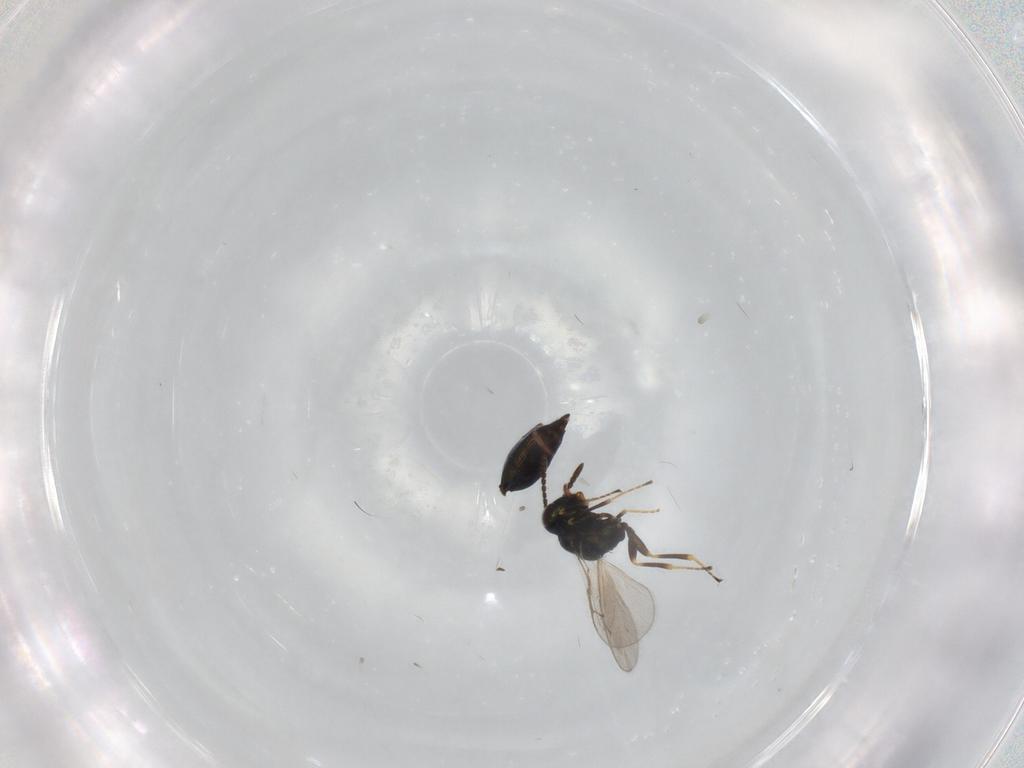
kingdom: Animalia
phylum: Arthropoda
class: Insecta
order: Hymenoptera
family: Pteromalidae
